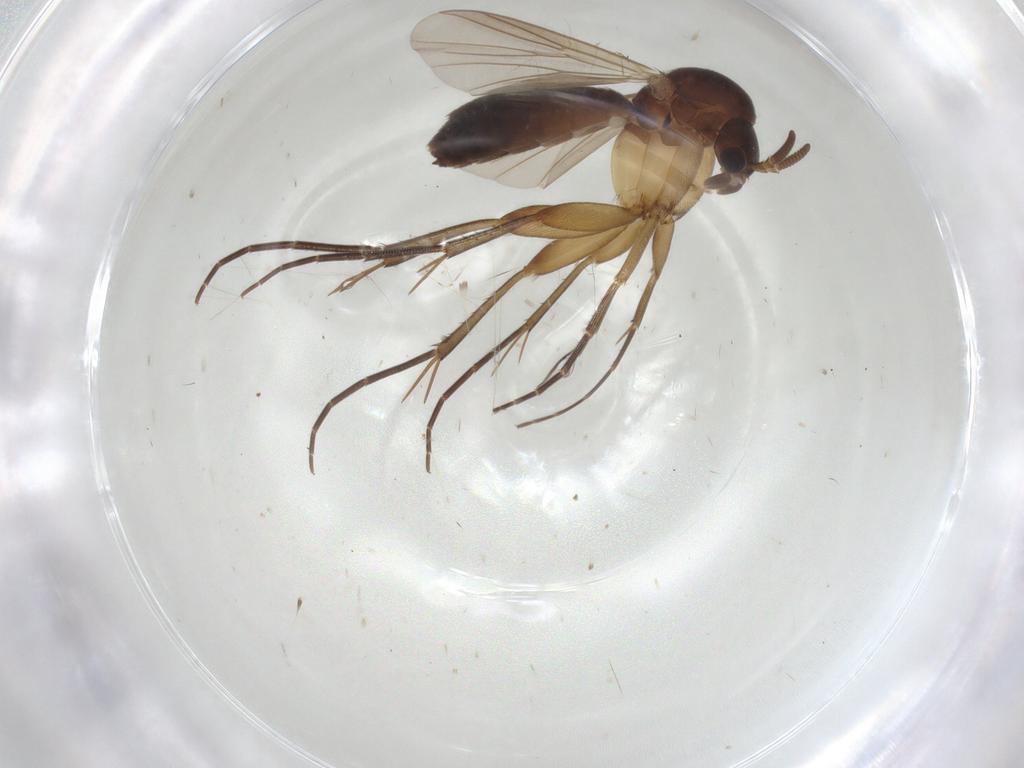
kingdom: Animalia
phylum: Arthropoda
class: Insecta
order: Diptera
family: Mycetophilidae
